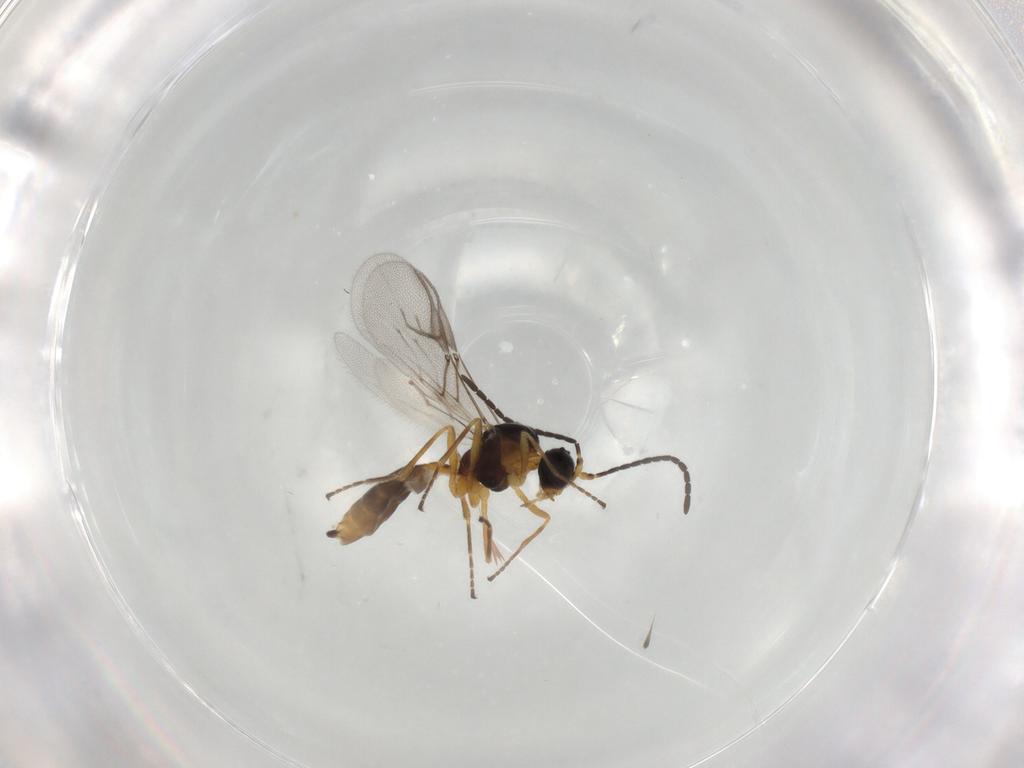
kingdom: Animalia
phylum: Arthropoda
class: Insecta
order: Hymenoptera
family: Braconidae
